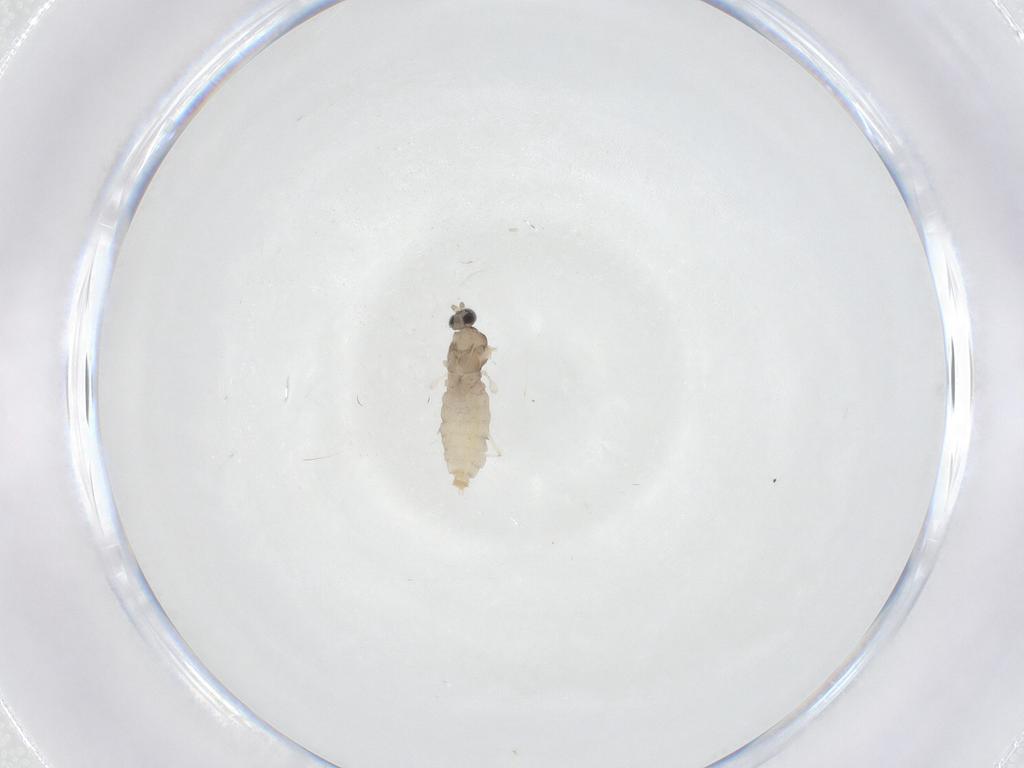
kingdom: Animalia
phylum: Arthropoda
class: Insecta
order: Diptera
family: Cecidomyiidae
